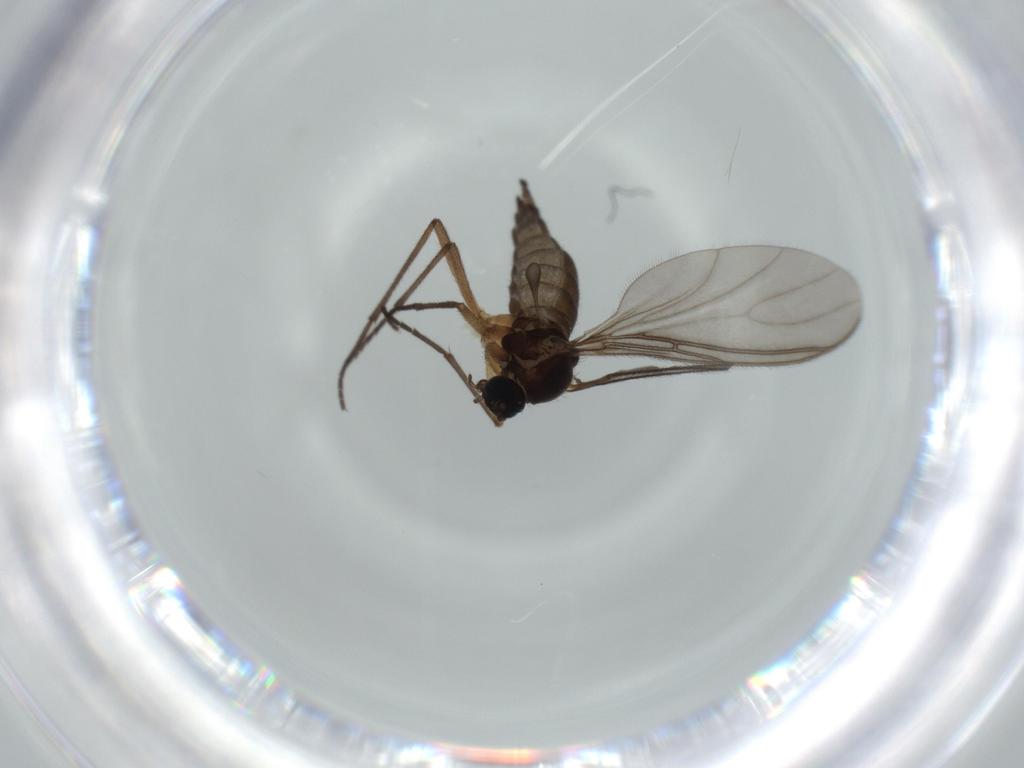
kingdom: Animalia
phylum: Arthropoda
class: Insecta
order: Diptera
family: Sciaridae
